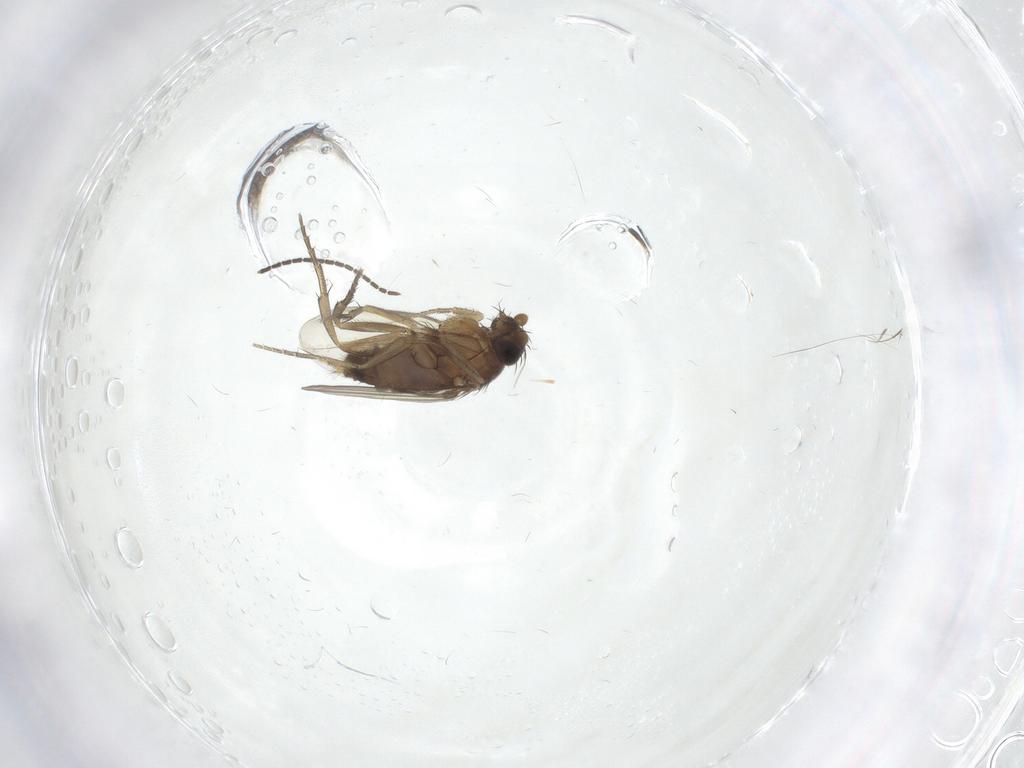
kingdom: Animalia
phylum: Arthropoda
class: Insecta
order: Diptera
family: Sciaridae
